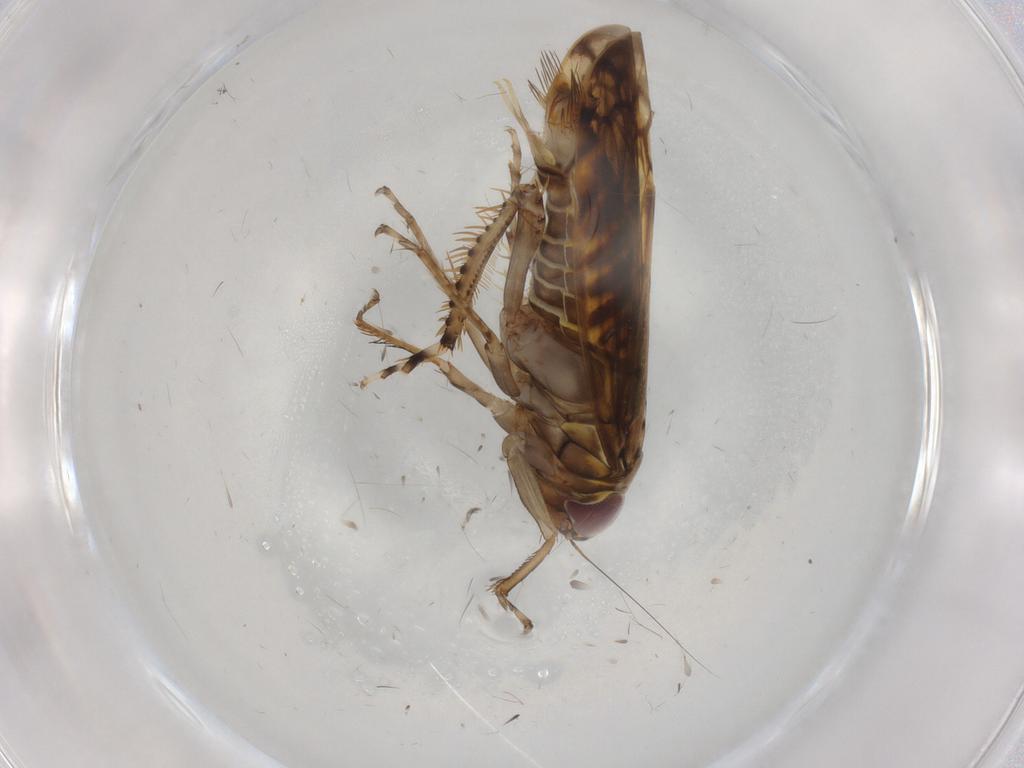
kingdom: Animalia
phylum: Arthropoda
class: Insecta
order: Hemiptera
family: Cicadellidae
